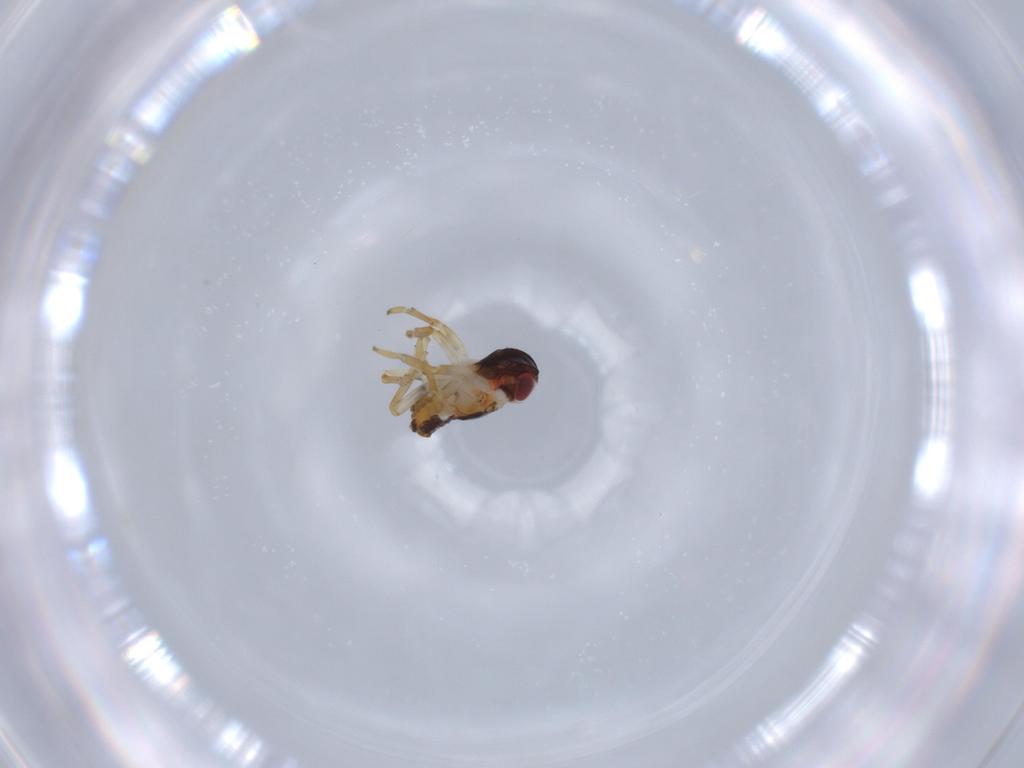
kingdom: Animalia
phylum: Arthropoda
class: Insecta
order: Hemiptera
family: Issidae
